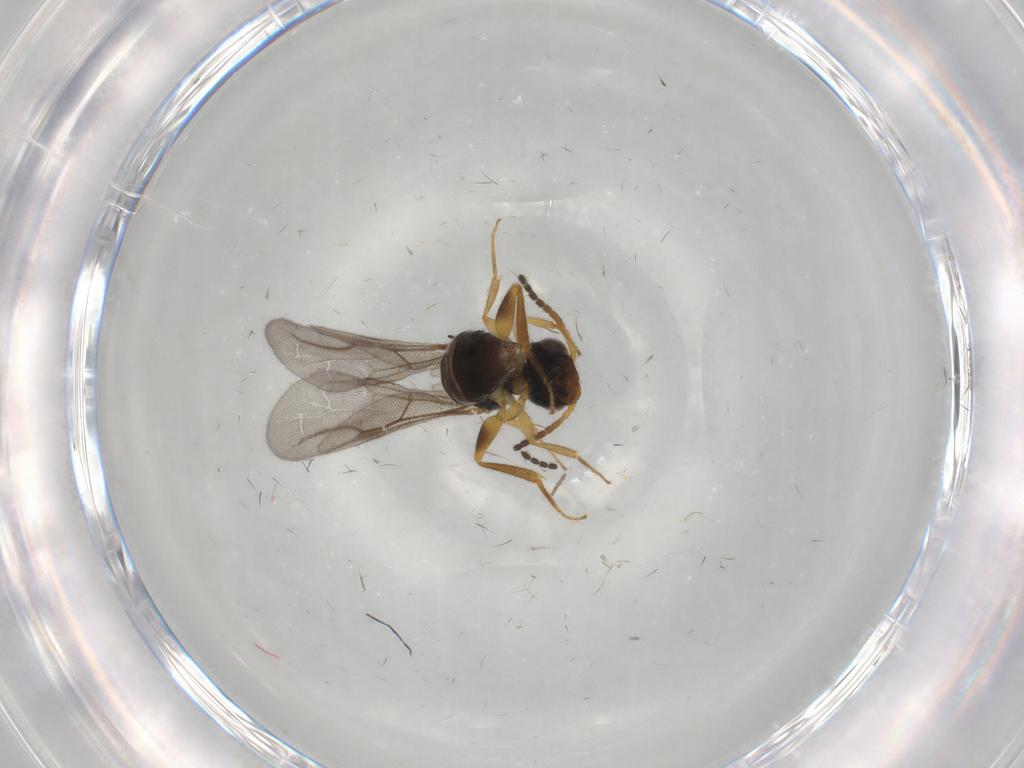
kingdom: Animalia
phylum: Arthropoda
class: Insecta
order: Hymenoptera
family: Bethylidae
